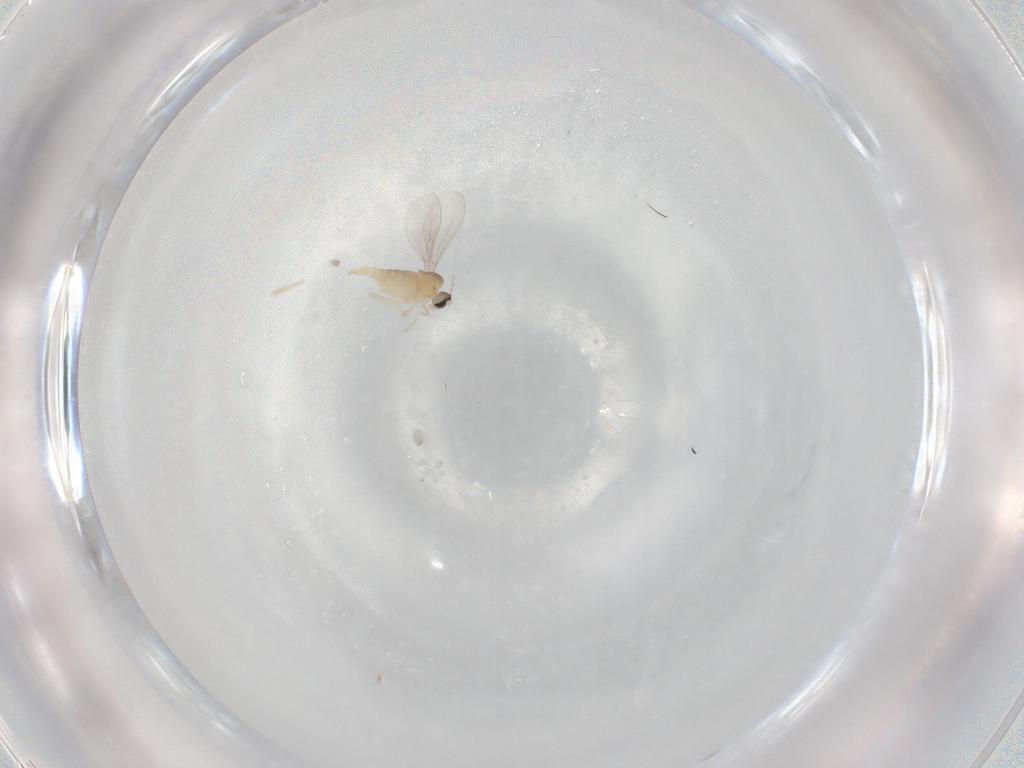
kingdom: Animalia
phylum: Arthropoda
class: Insecta
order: Diptera
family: Cecidomyiidae
